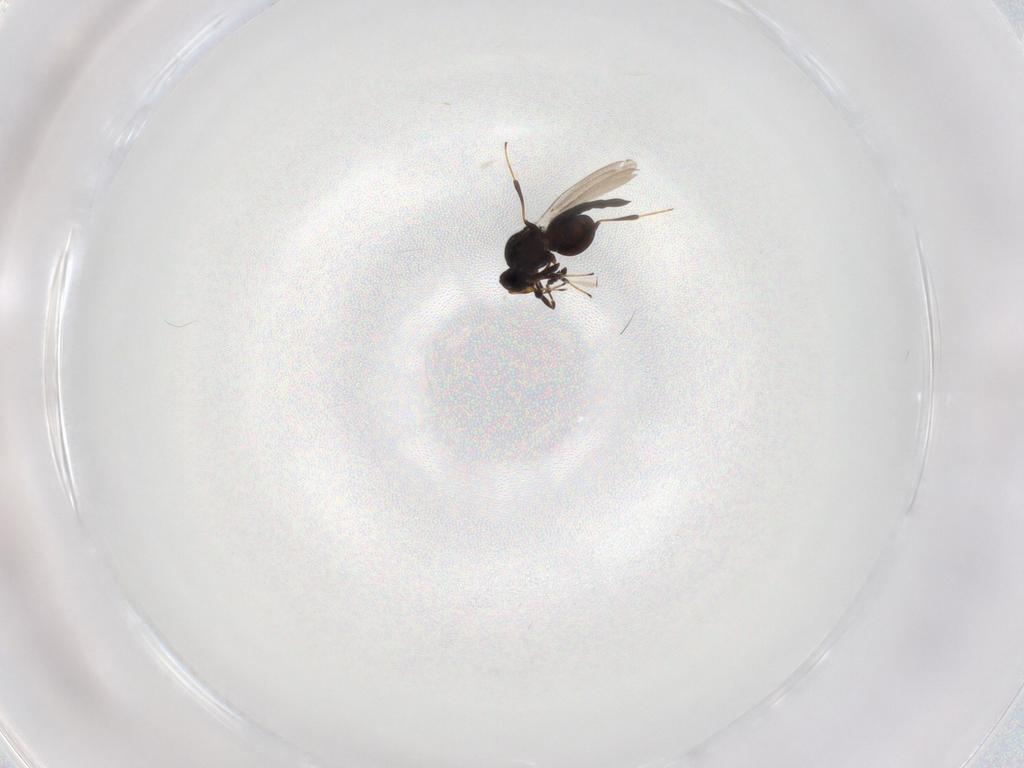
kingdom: Animalia
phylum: Arthropoda
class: Insecta
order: Hymenoptera
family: Platygastridae
